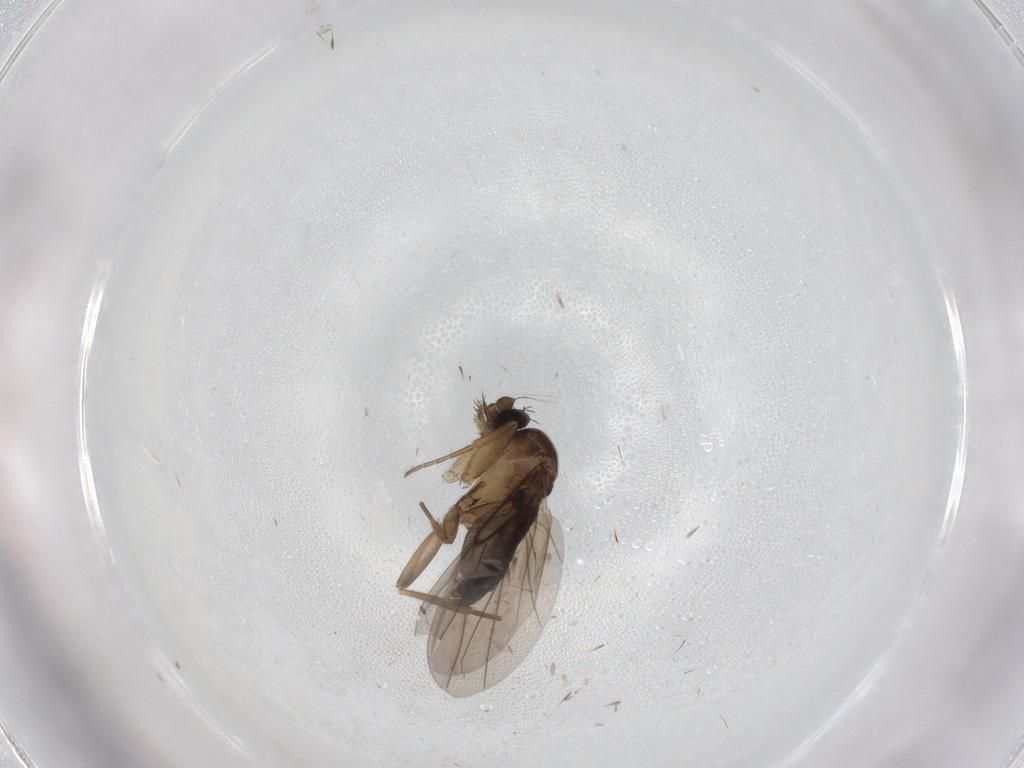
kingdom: Animalia
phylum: Arthropoda
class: Insecta
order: Diptera
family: Phoridae
